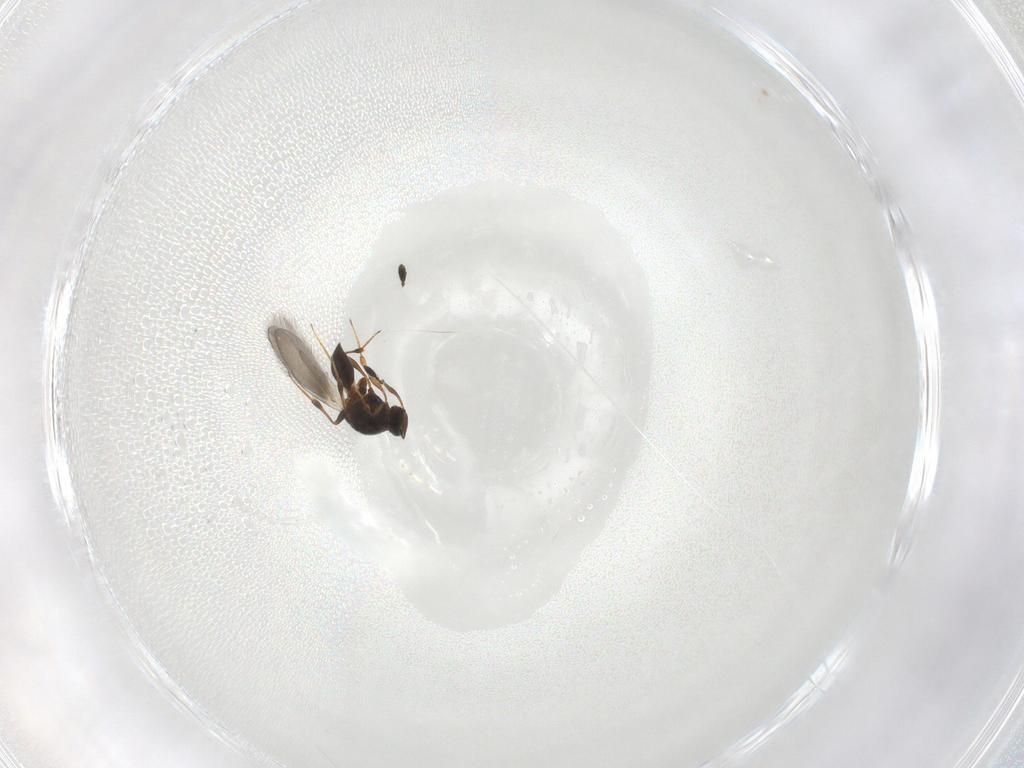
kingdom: Animalia
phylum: Arthropoda
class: Insecta
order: Hymenoptera
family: Platygastridae
